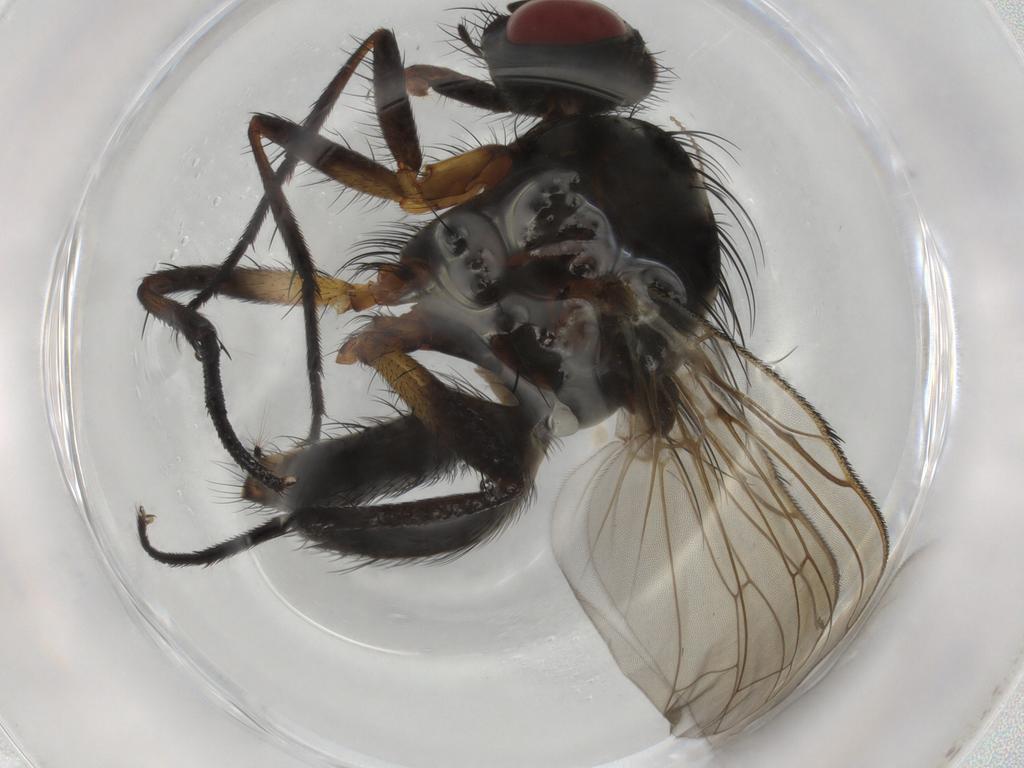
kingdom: Animalia
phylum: Arthropoda
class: Insecta
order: Diptera
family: Anthomyiidae
